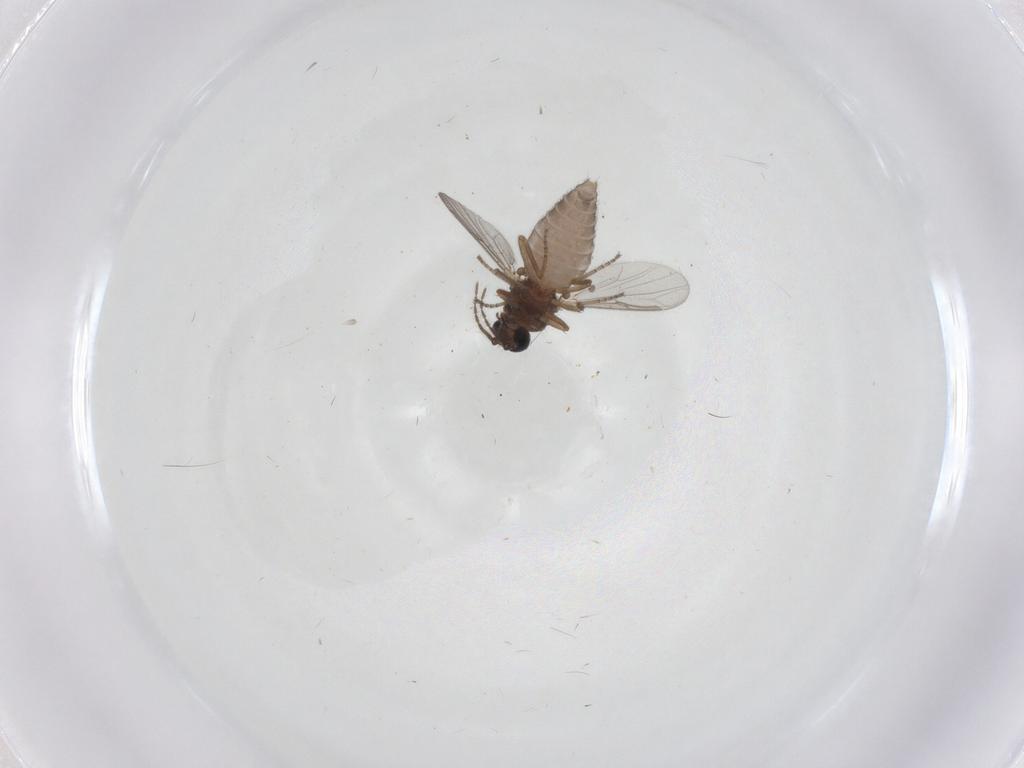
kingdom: Animalia
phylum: Arthropoda
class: Insecta
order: Diptera
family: Ceratopogonidae
